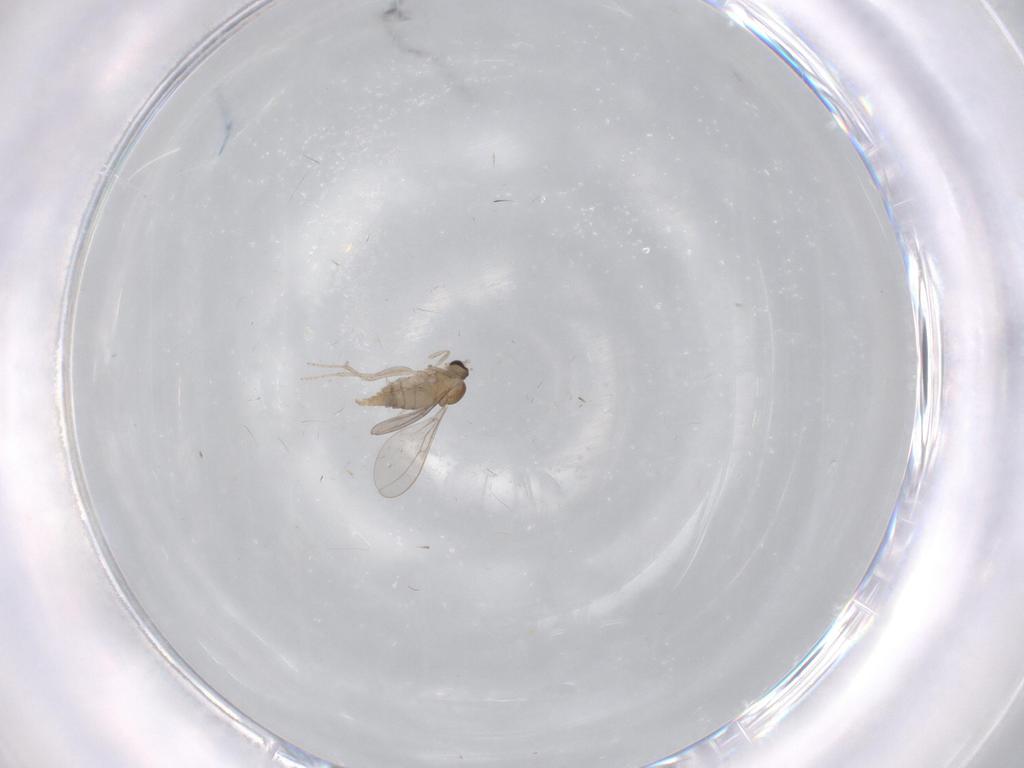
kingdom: Animalia
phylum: Arthropoda
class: Insecta
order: Diptera
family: Cecidomyiidae
